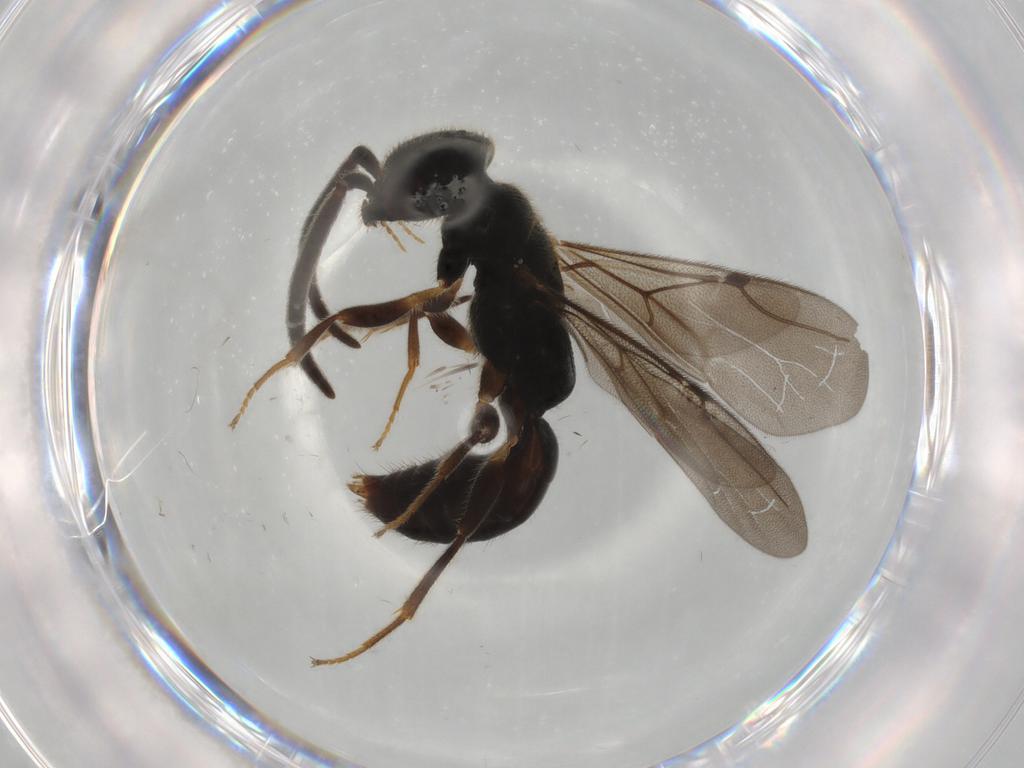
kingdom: Animalia
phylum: Arthropoda
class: Insecta
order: Hymenoptera
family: Bethylidae
